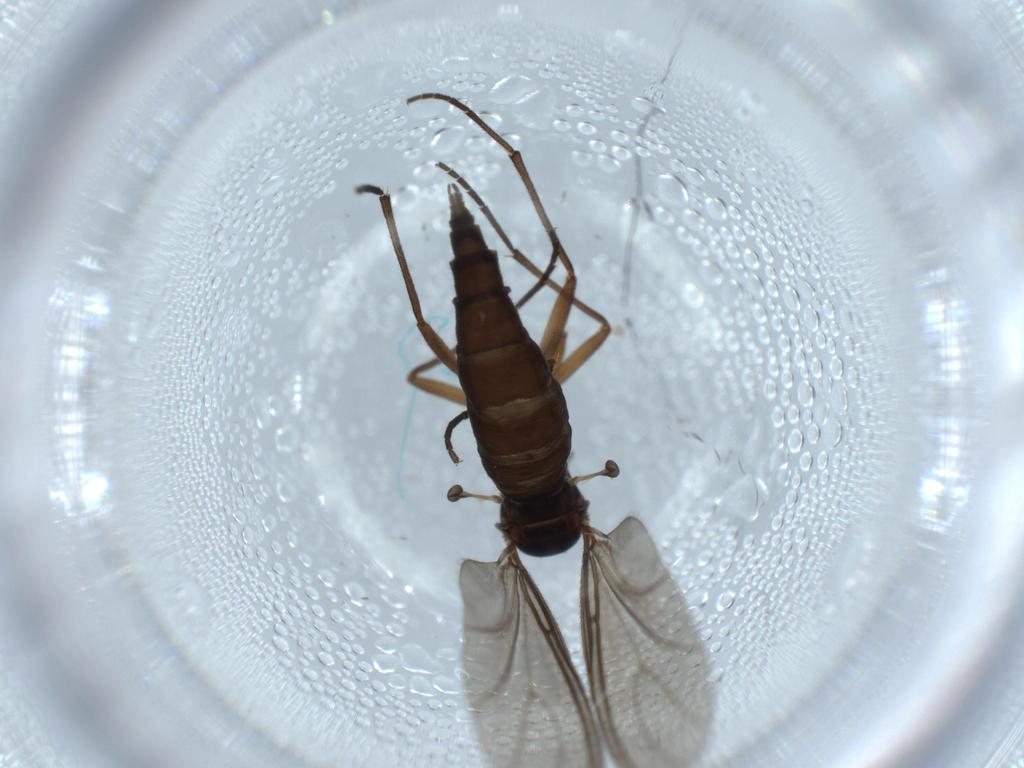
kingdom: Animalia
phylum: Arthropoda
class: Insecta
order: Diptera
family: Sciaridae
